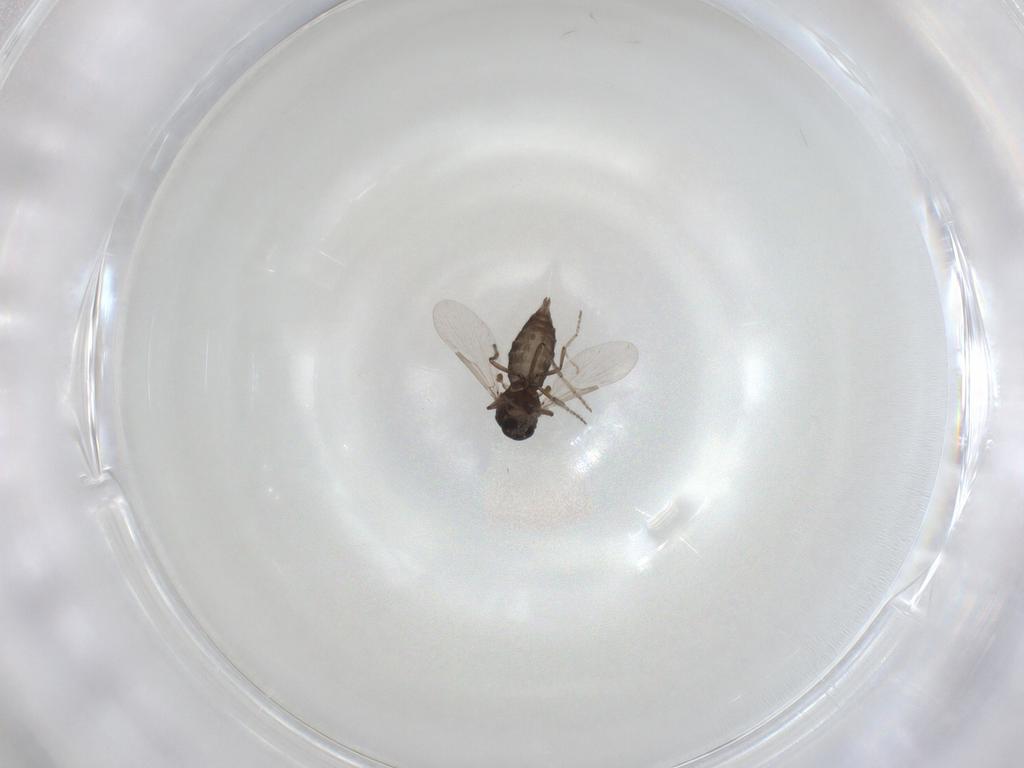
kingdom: Animalia
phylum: Arthropoda
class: Insecta
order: Diptera
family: Ceratopogonidae
